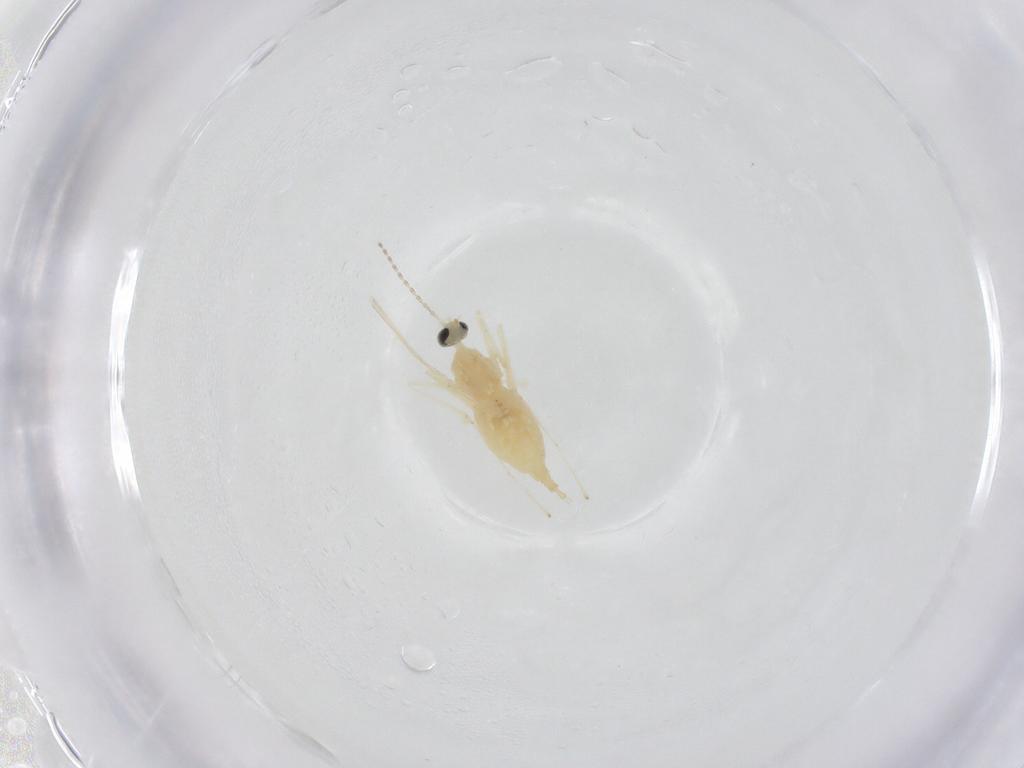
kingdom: Animalia
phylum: Arthropoda
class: Insecta
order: Diptera
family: Cecidomyiidae
